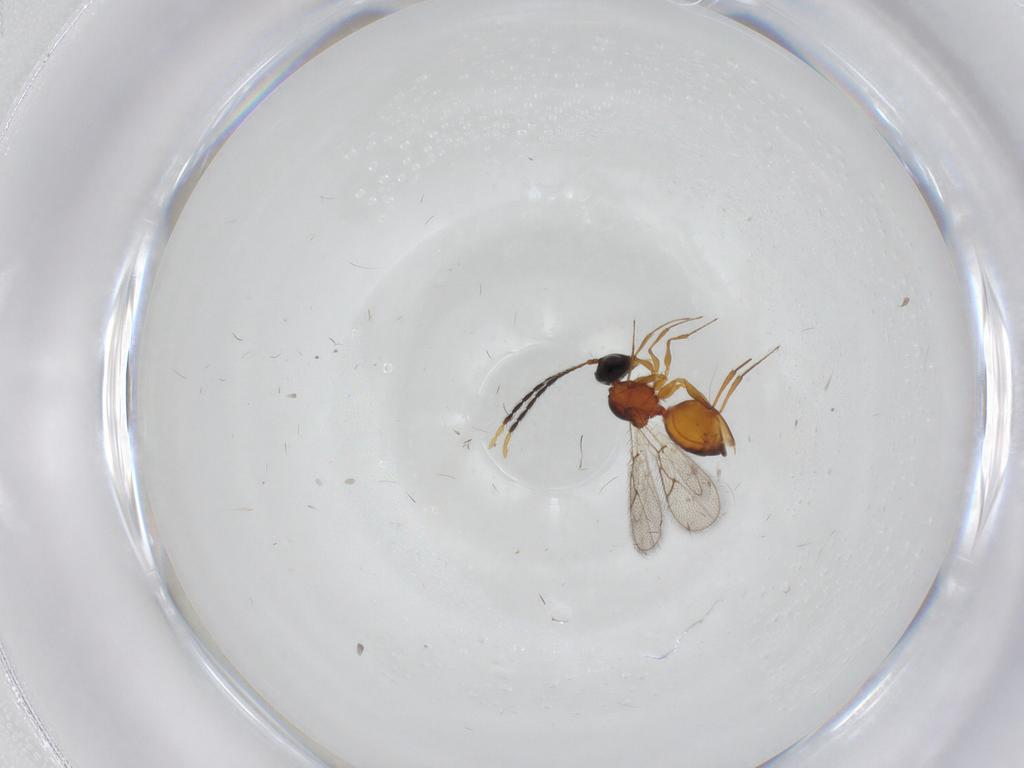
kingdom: Animalia
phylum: Arthropoda
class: Insecta
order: Hymenoptera
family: Figitidae
